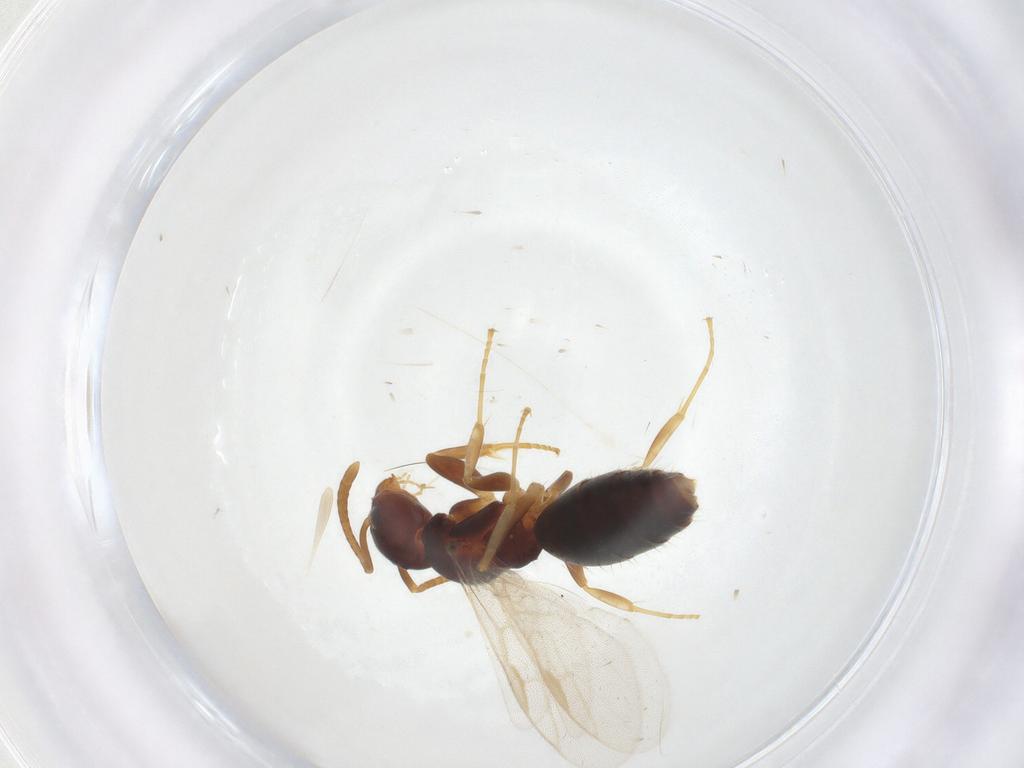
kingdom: Animalia
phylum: Arthropoda
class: Insecta
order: Hymenoptera
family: Formicidae
